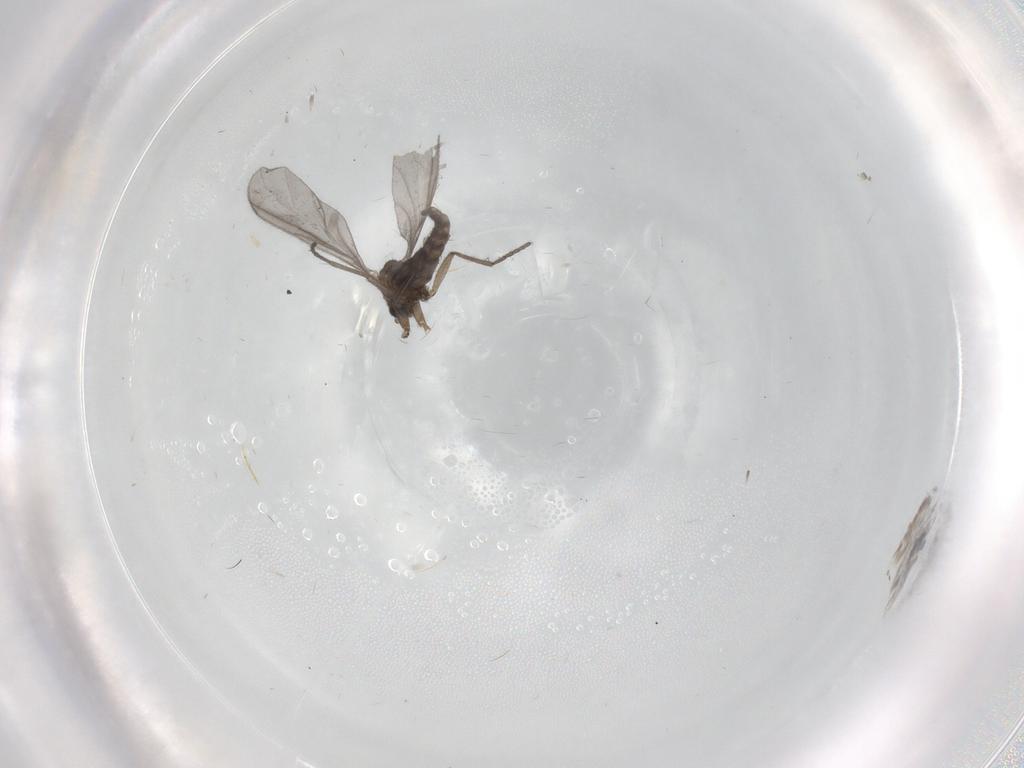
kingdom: Animalia
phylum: Arthropoda
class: Insecta
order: Diptera
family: Sciaridae
